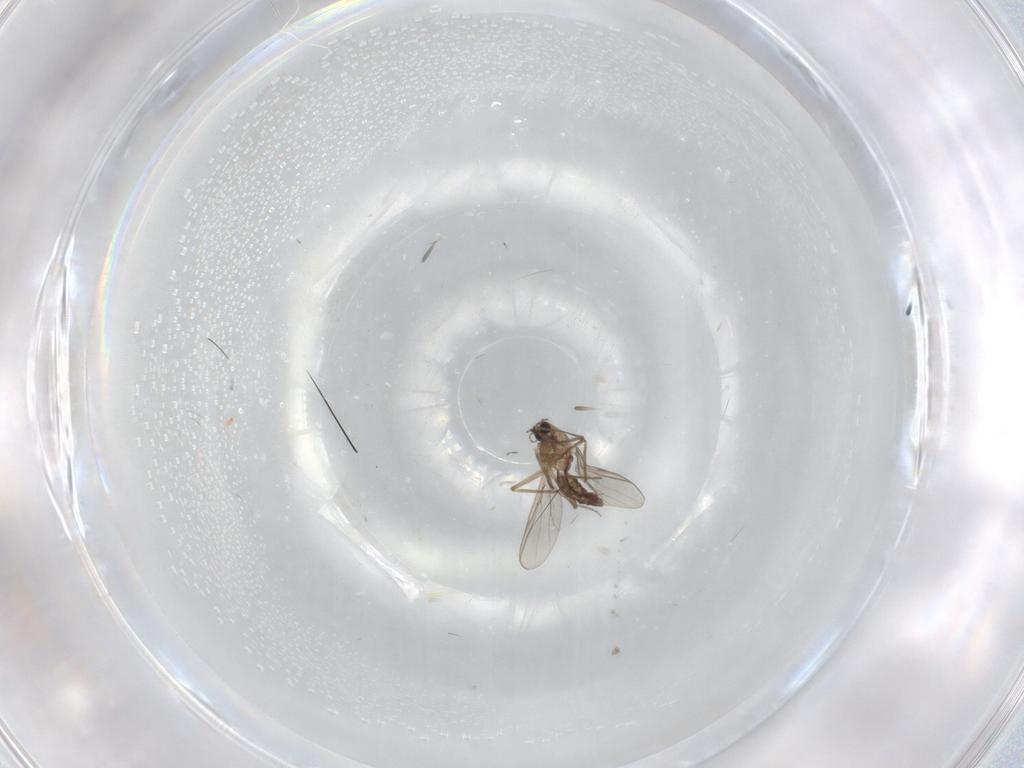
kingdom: Animalia
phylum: Arthropoda
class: Insecta
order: Diptera
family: Chironomidae
